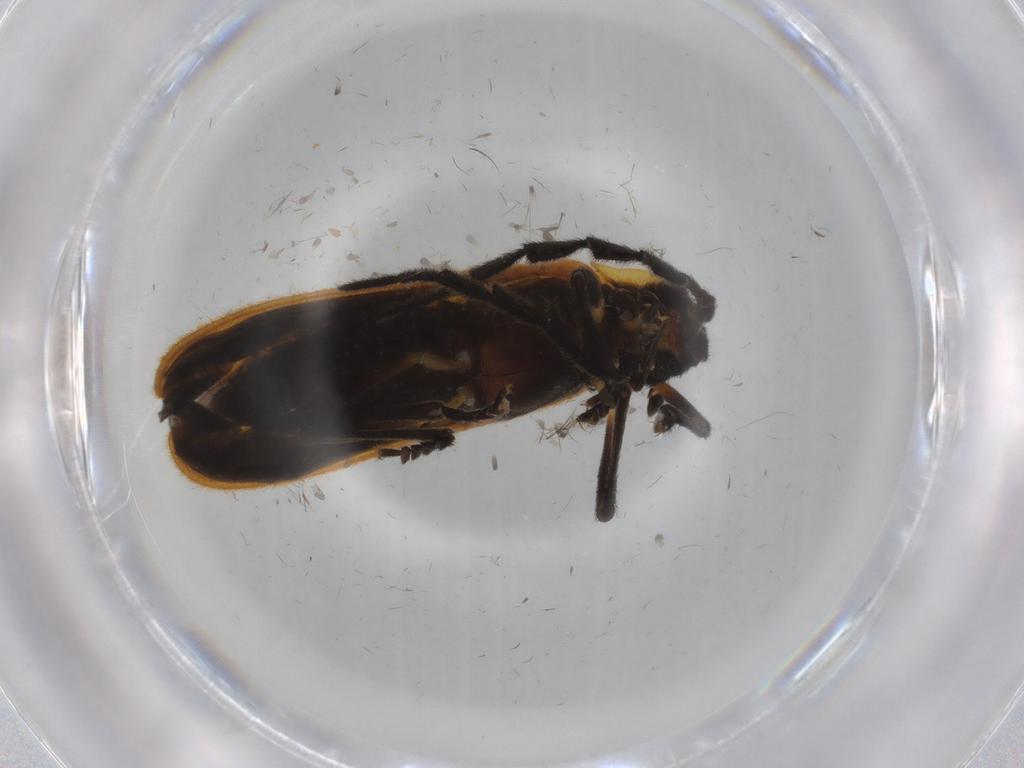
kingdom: Animalia
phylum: Arthropoda
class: Insecta
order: Coleoptera
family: Lycidae
